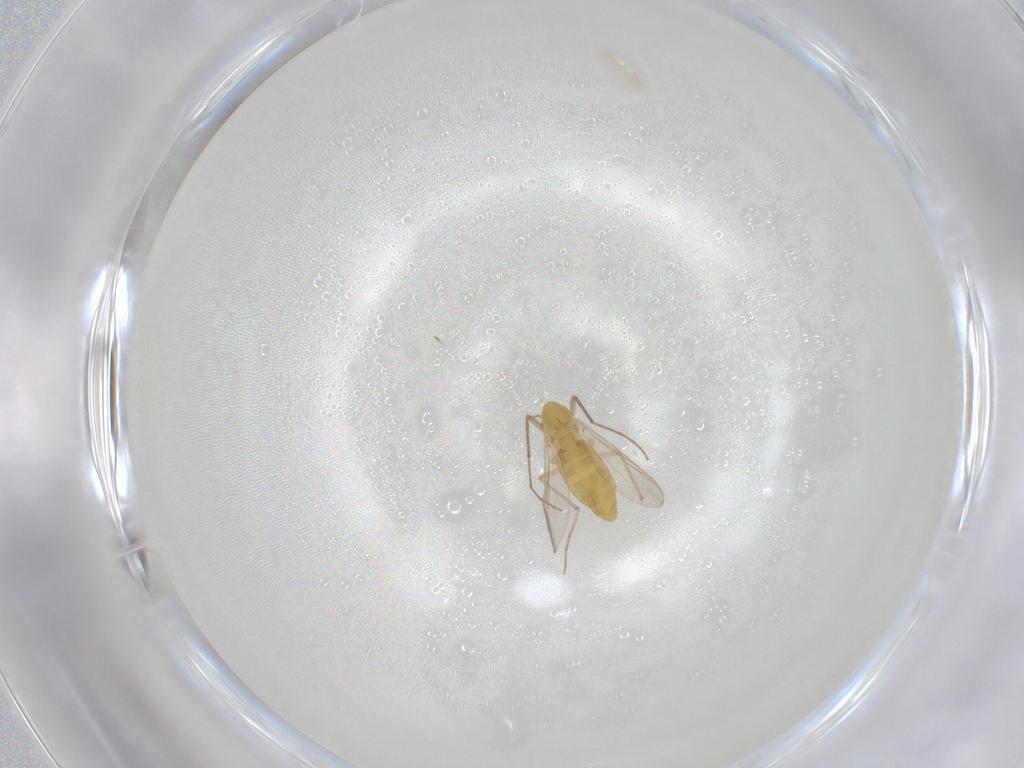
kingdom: Animalia
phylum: Arthropoda
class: Insecta
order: Diptera
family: Chironomidae
